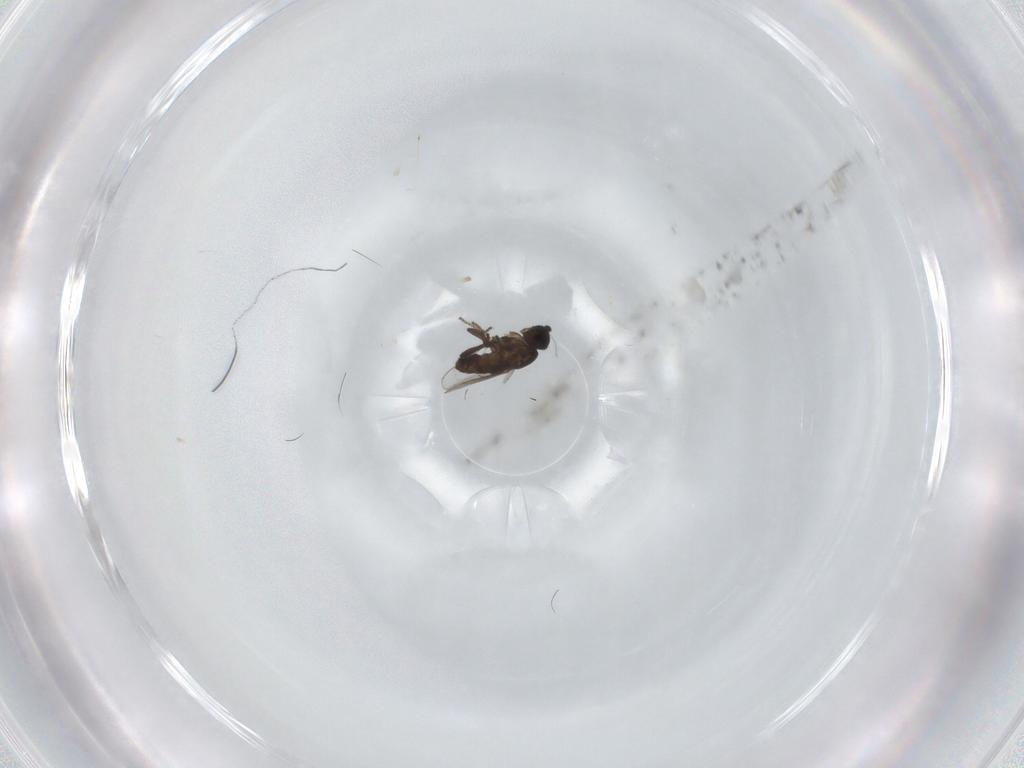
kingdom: Animalia
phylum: Arthropoda
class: Insecta
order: Diptera
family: Sphaeroceridae
